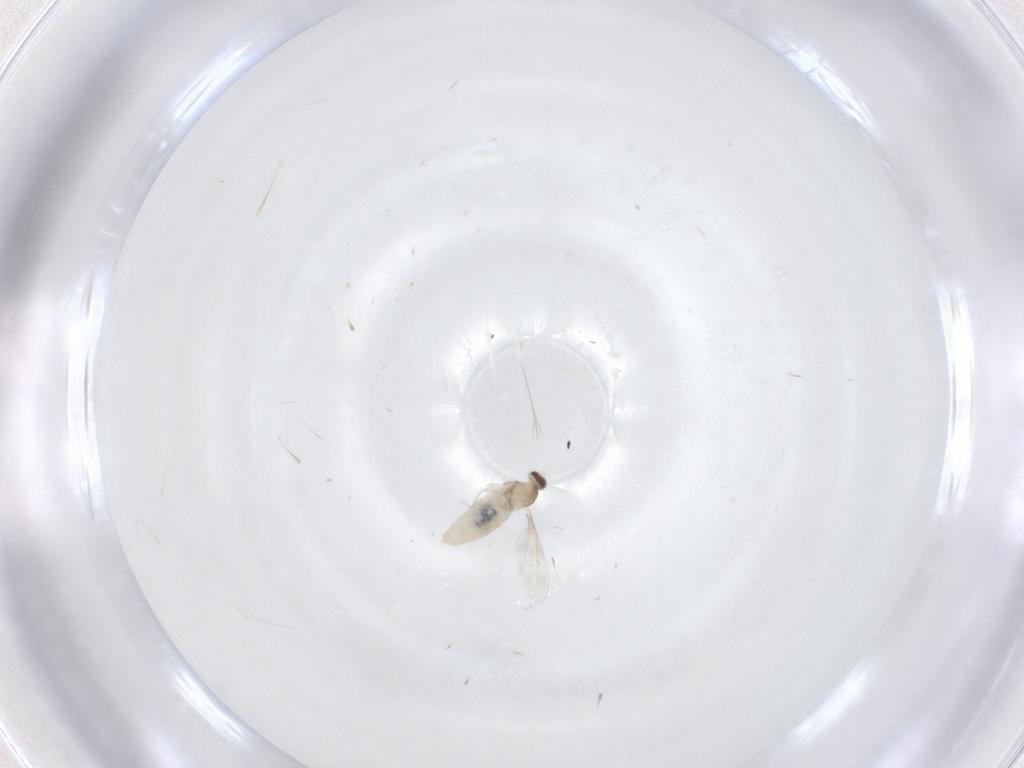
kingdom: Animalia
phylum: Arthropoda
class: Insecta
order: Diptera
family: Cecidomyiidae
